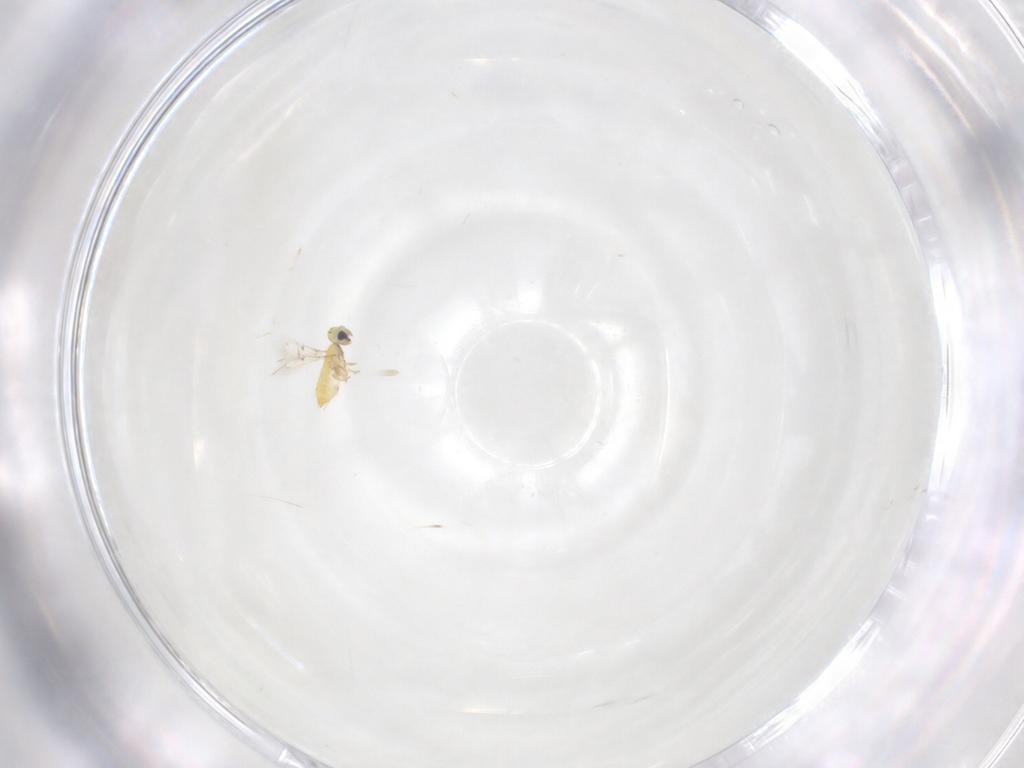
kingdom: Animalia
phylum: Arthropoda
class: Insecta
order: Hymenoptera
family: Trichogrammatidae
